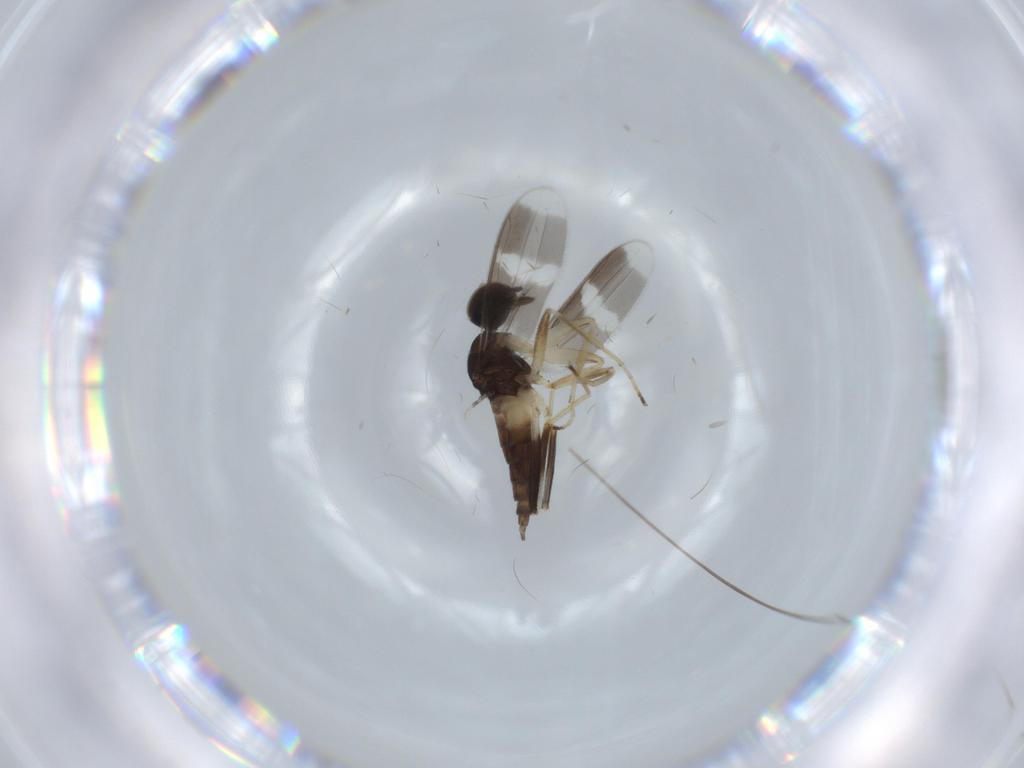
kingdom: Animalia
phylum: Arthropoda
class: Insecta
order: Diptera
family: Hybotidae
